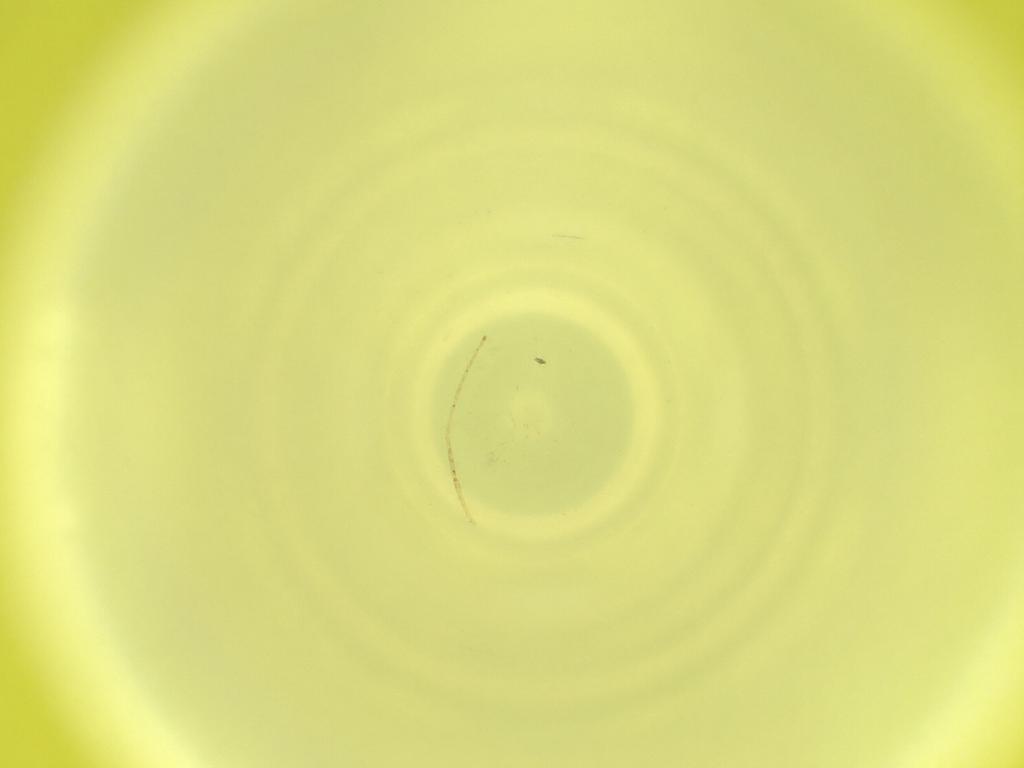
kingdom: Animalia
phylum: Arthropoda
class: Insecta
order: Diptera
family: Cecidomyiidae
